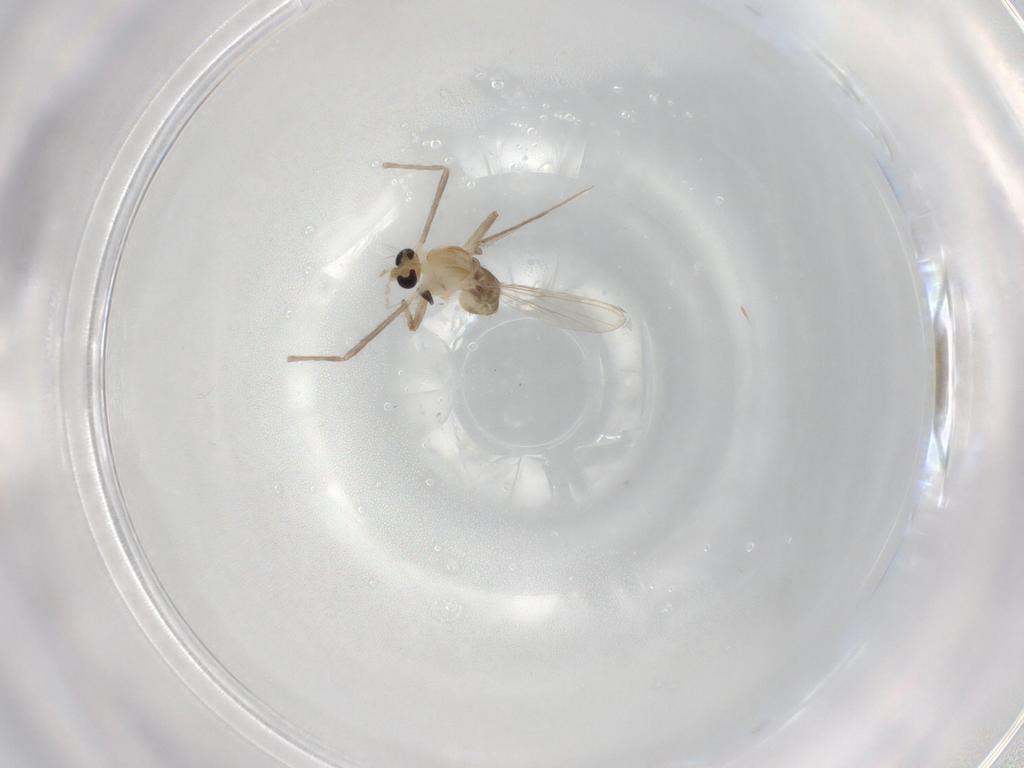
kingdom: Animalia
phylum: Arthropoda
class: Insecta
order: Diptera
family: Chironomidae
